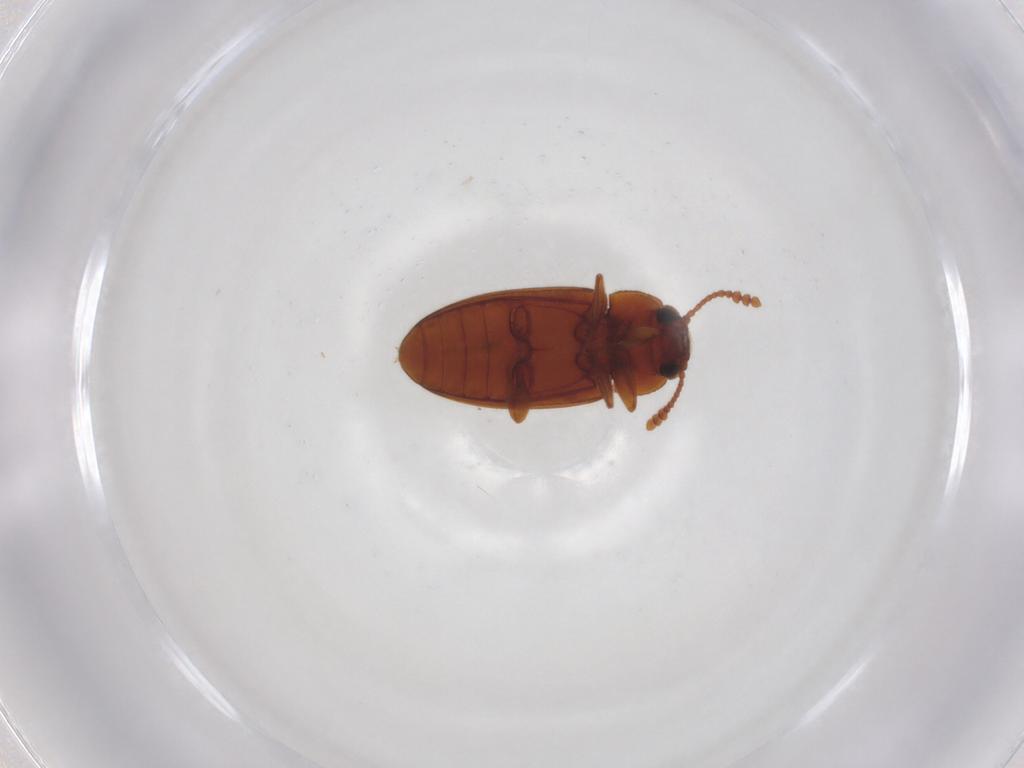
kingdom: Animalia
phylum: Arthropoda
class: Insecta
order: Coleoptera
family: Erotylidae
